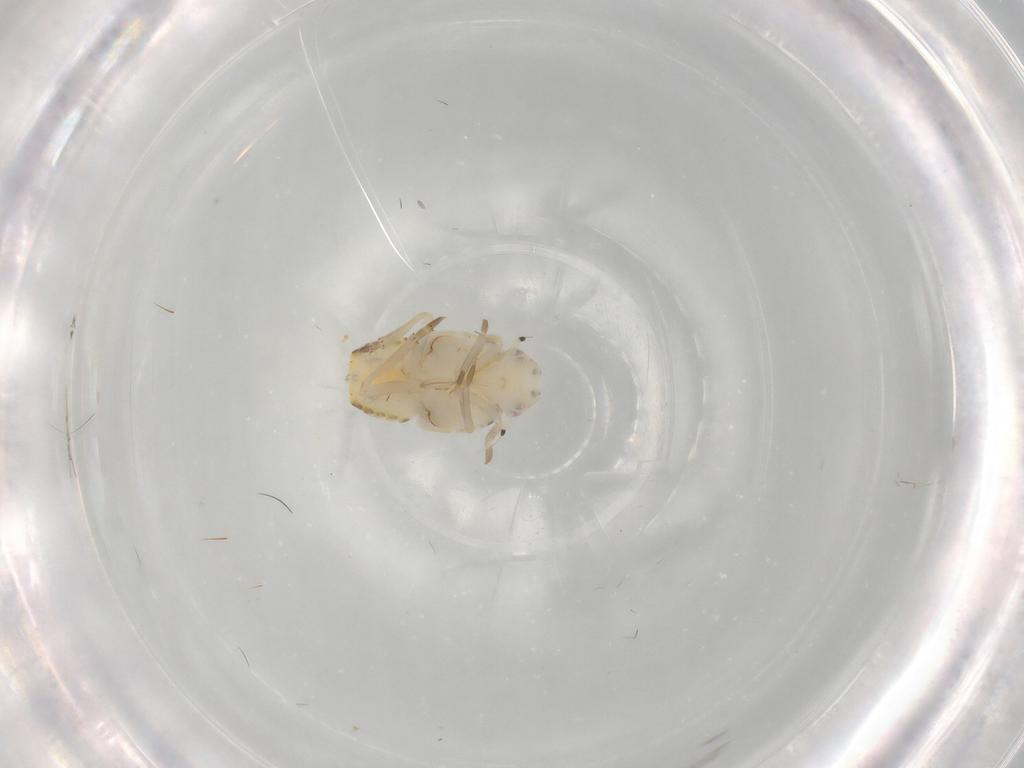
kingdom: Animalia
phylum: Arthropoda
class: Insecta
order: Hemiptera
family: Flatidae
